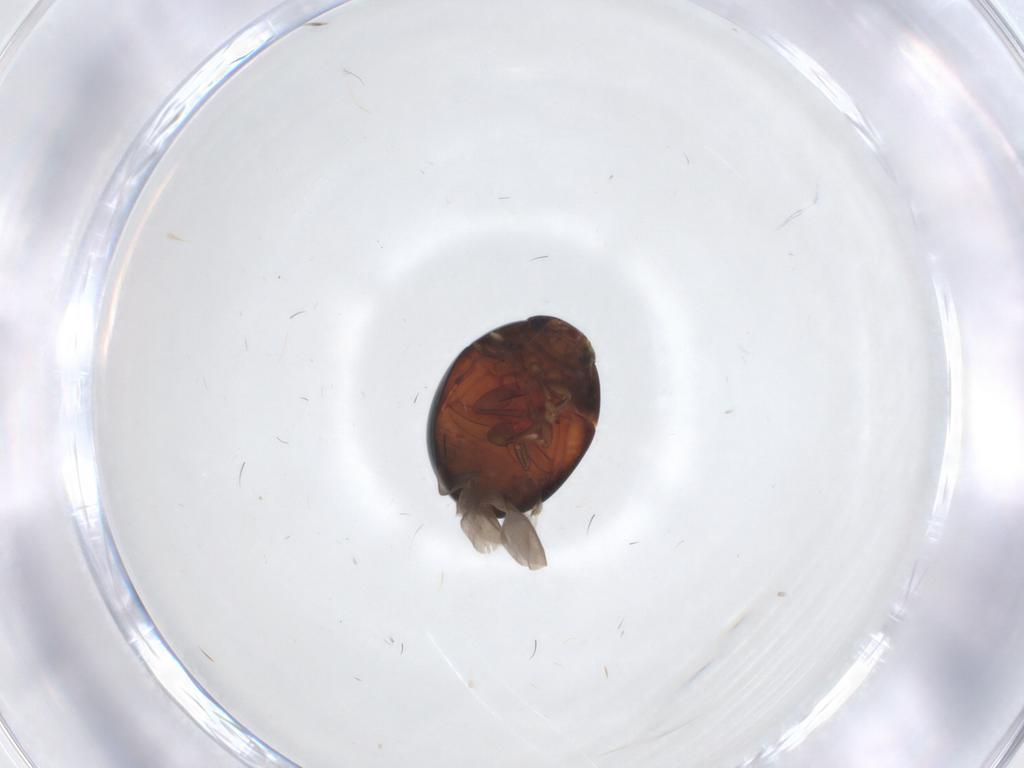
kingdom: Animalia
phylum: Arthropoda
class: Insecta
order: Coleoptera
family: Phalacridae
